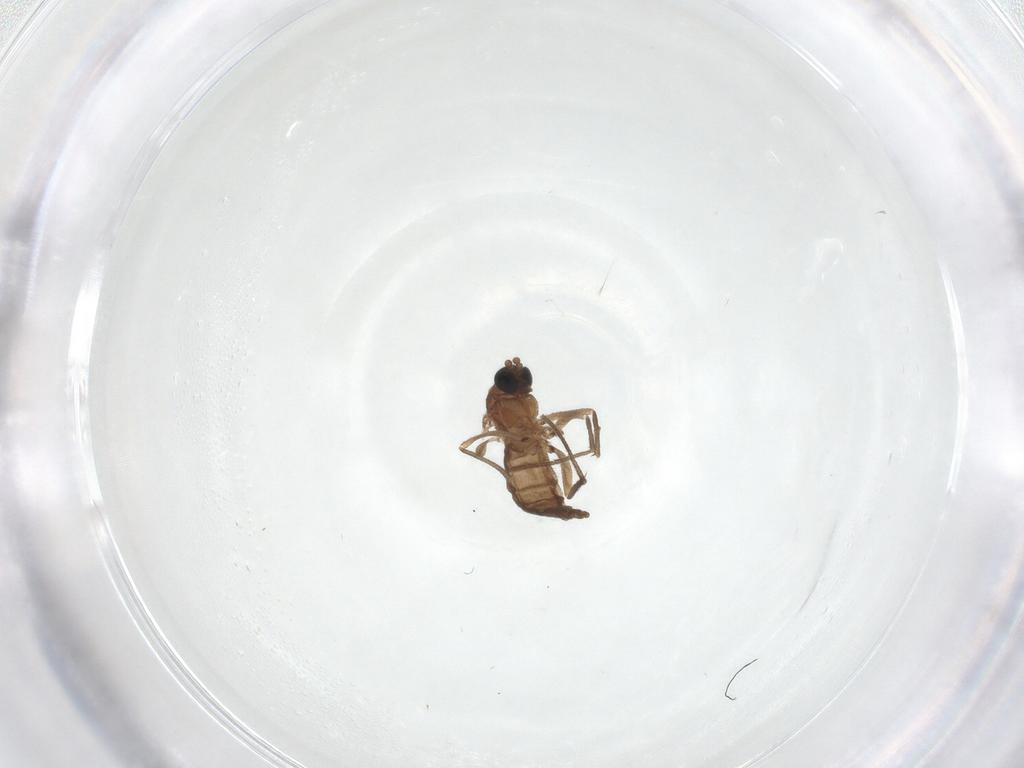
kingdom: Animalia
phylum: Arthropoda
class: Insecta
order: Diptera
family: Sciaridae
